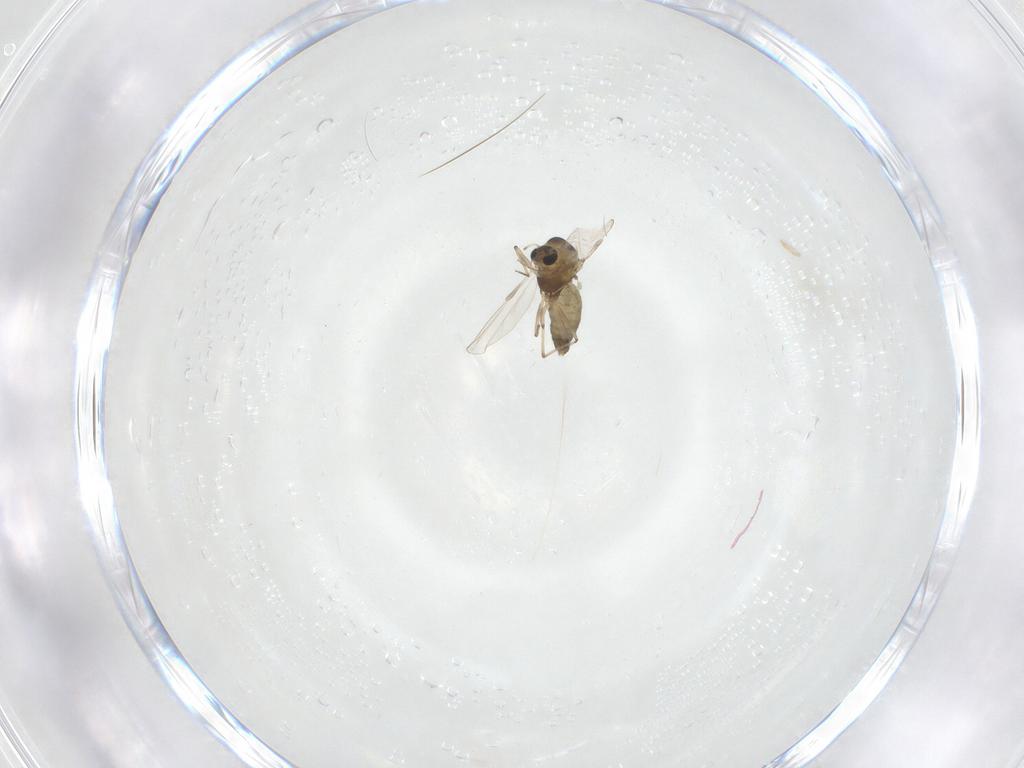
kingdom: Animalia
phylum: Arthropoda
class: Insecta
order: Diptera
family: Chironomidae
